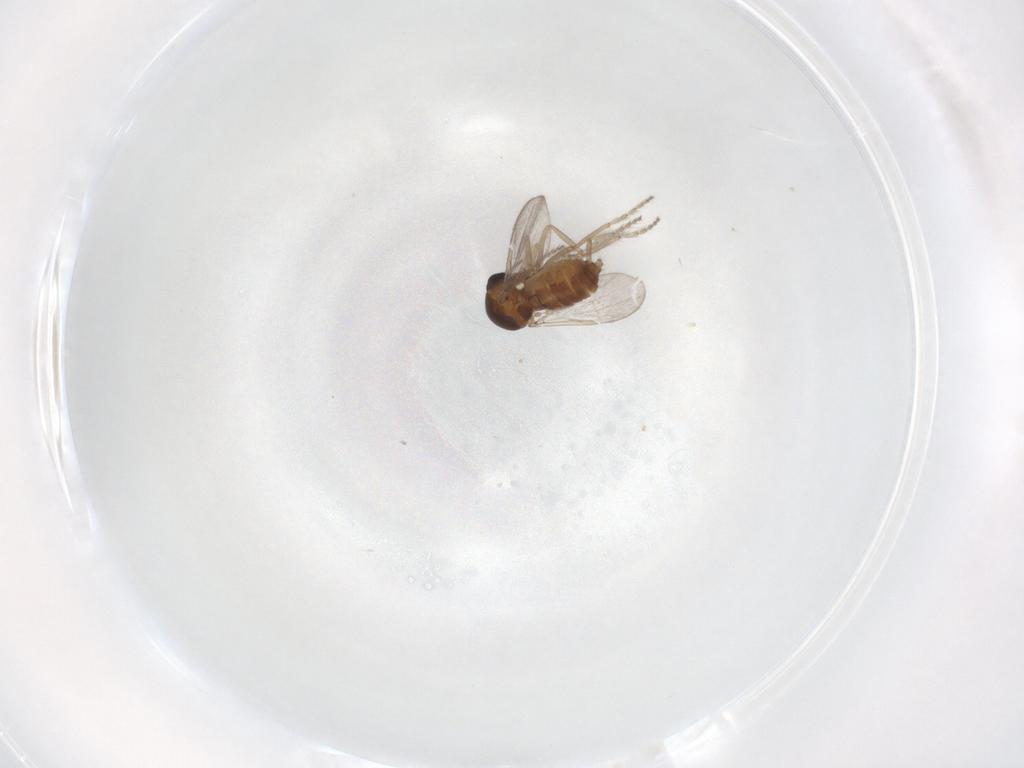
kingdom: Animalia
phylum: Arthropoda
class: Insecta
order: Diptera
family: Ceratopogonidae
